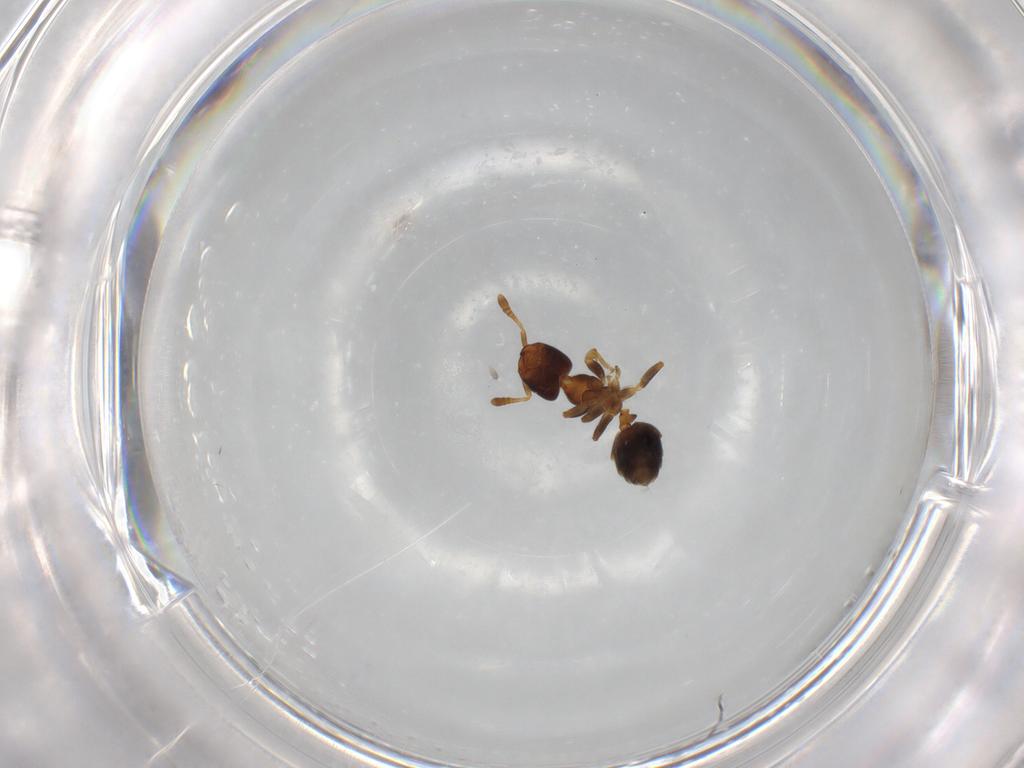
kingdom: Animalia
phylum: Arthropoda
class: Insecta
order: Hymenoptera
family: Formicidae
